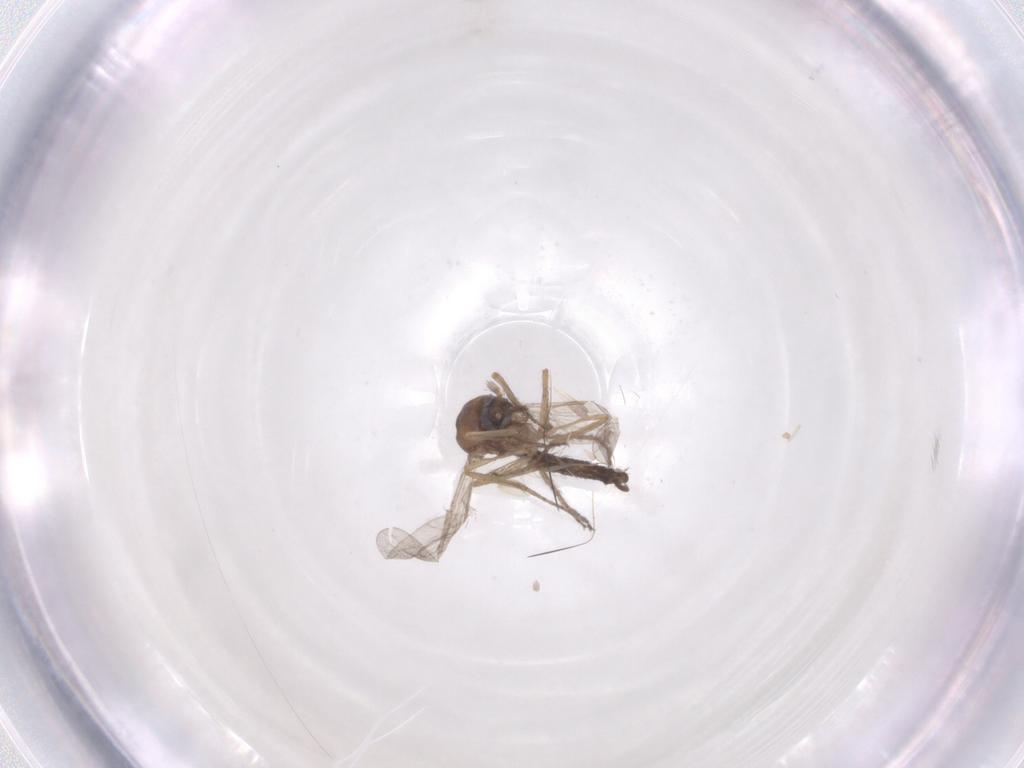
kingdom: Animalia
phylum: Arthropoda
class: Insecta
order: Diptera
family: Ceratopogonidae
